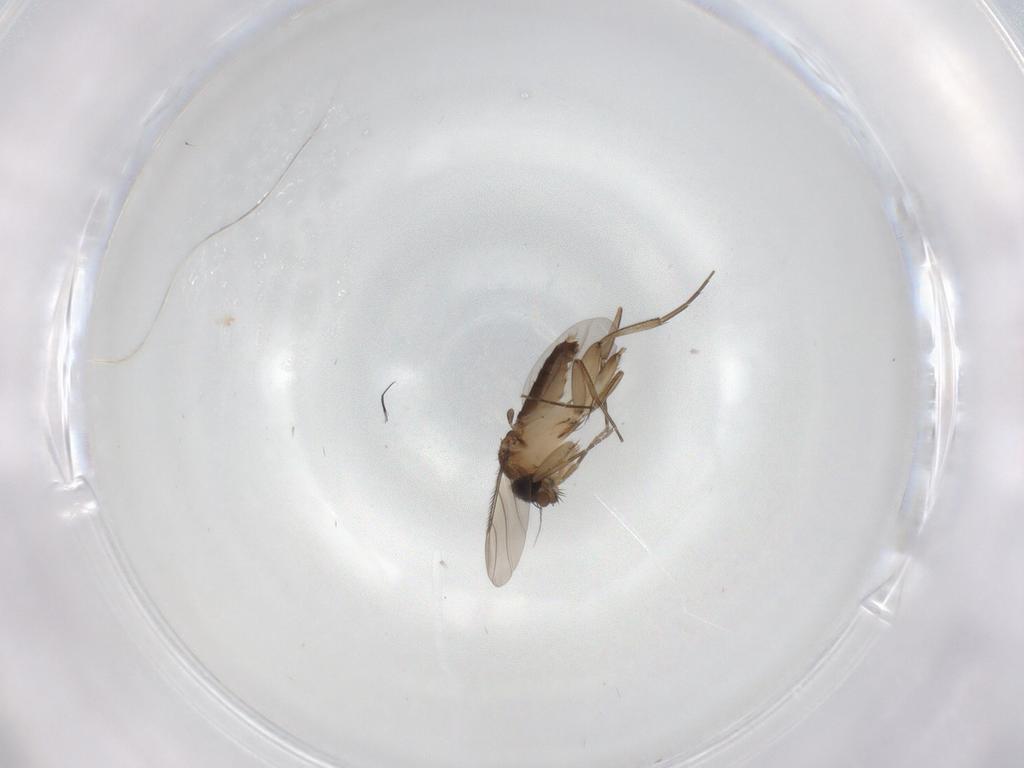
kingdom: Animalia
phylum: Arthropoda
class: Insecta
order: Diptera
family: Phoridae
